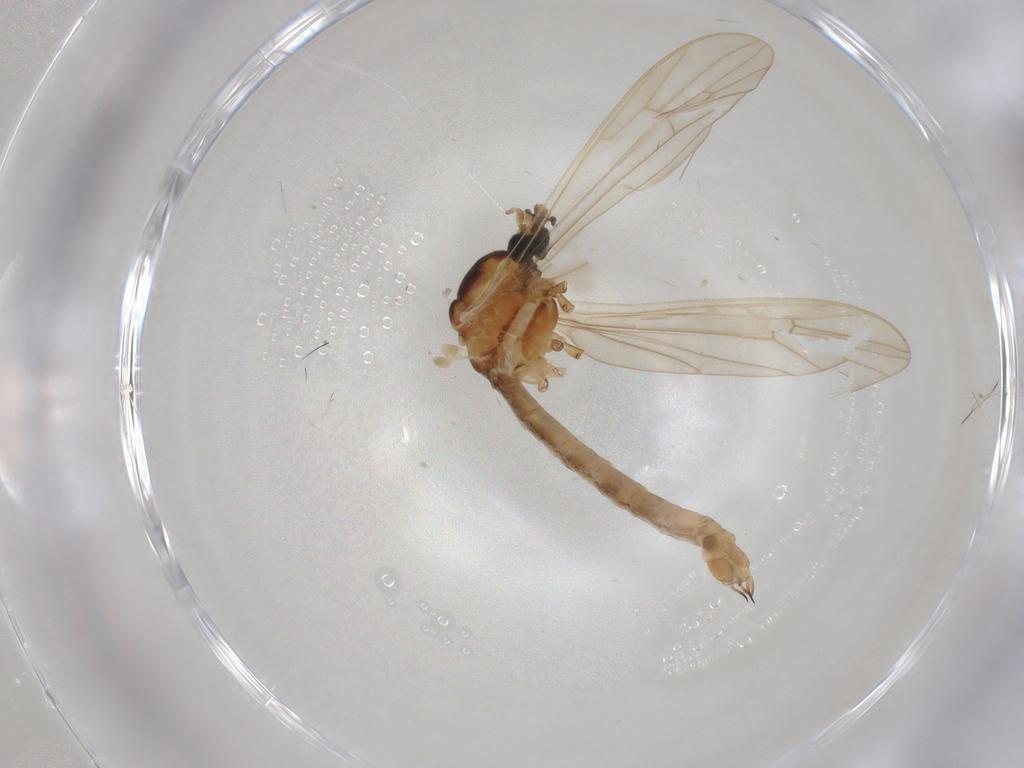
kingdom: Animalia
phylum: Arthropoda
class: Insecta
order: Diptera
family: Limoniidae
